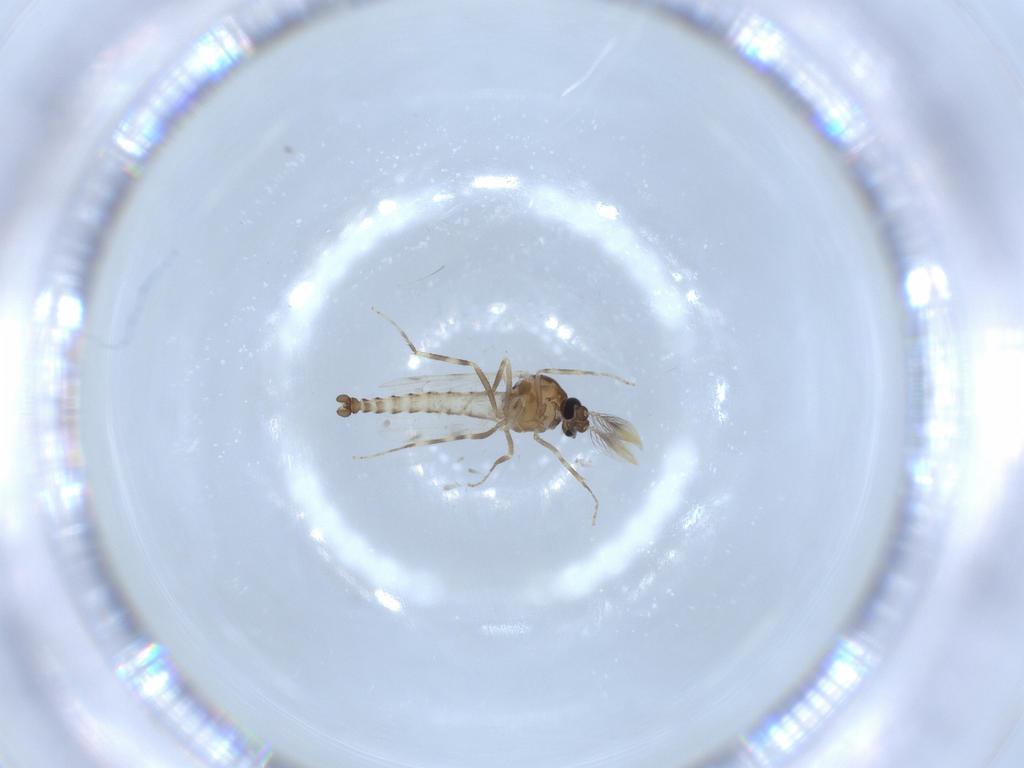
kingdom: Animalia
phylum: Arthropoda
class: Insecta
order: Diptera
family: Ceratopogonidae
